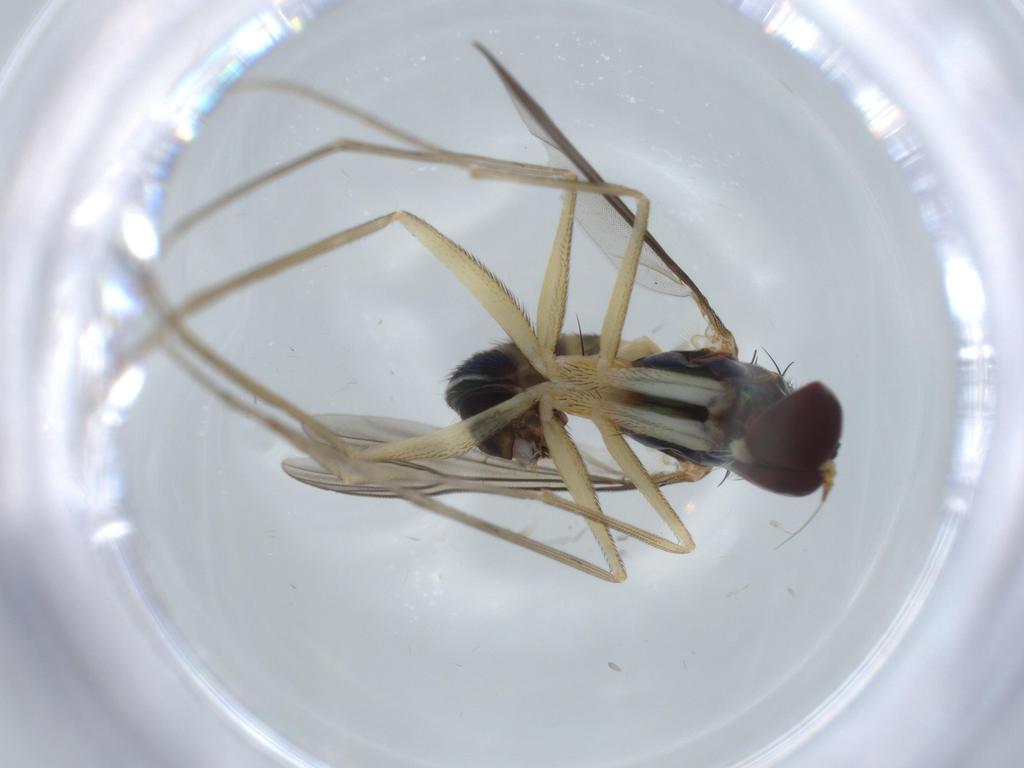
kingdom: Animalia
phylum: Arthropoda
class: Insecta
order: Diptera
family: Dolichopodidae
